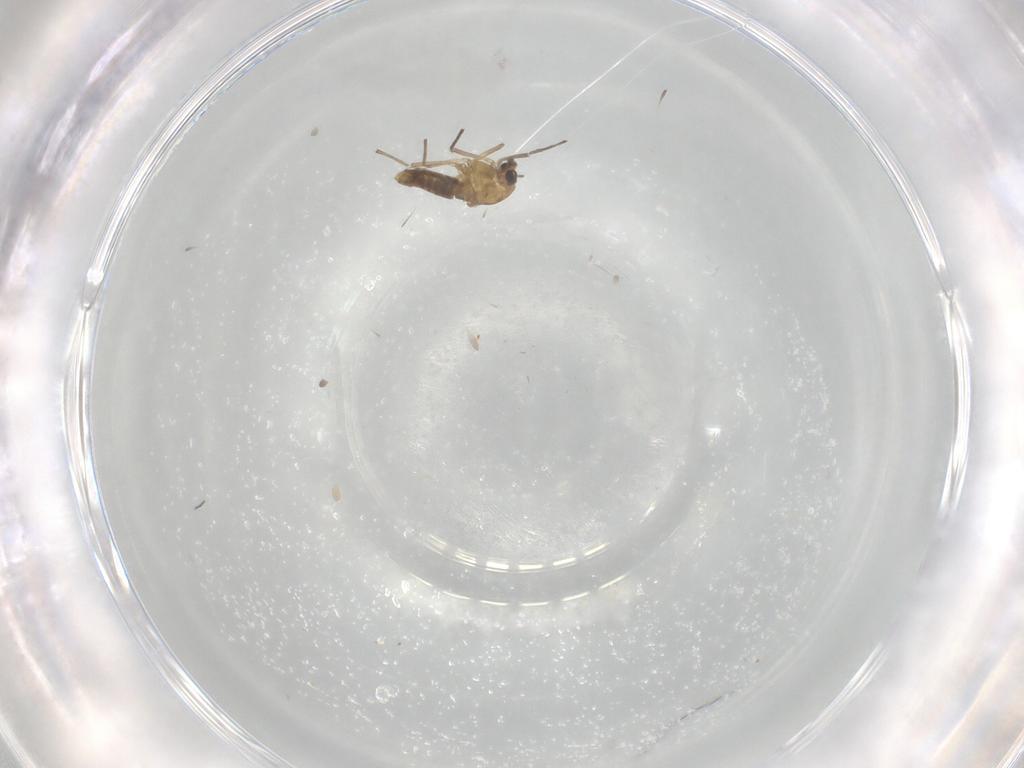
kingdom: Animalia
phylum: Arthropoda
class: Insecta
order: Diptera
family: Chironomidae
